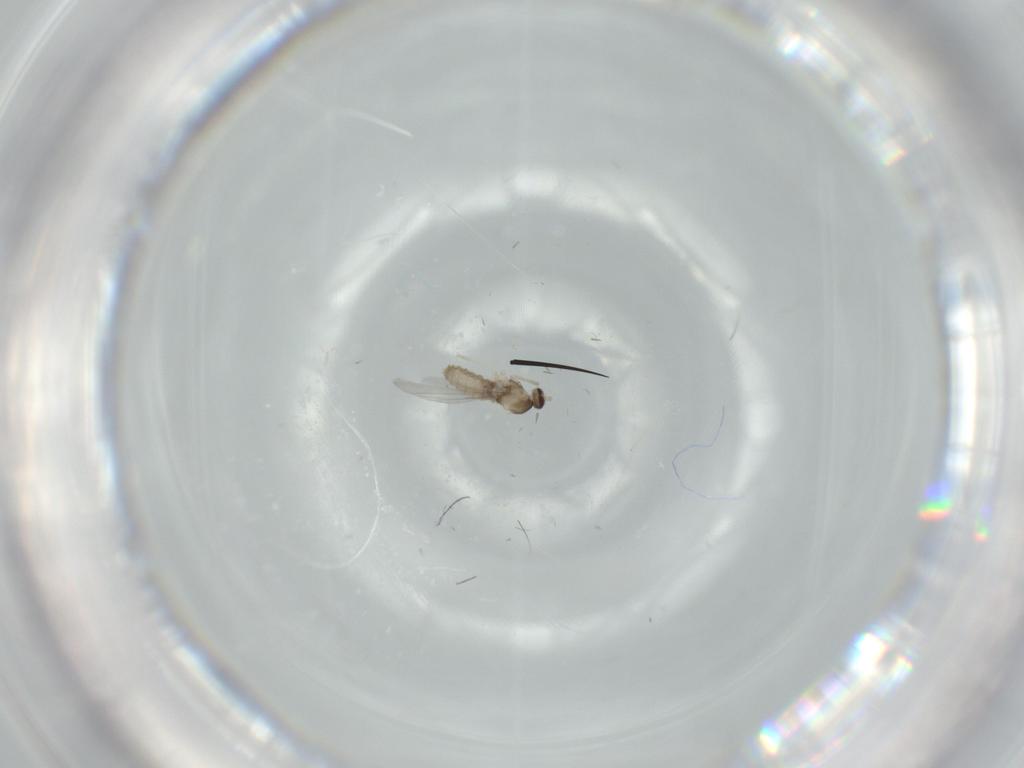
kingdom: Animalia
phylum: Arthropoda
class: Insecta
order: Diptera
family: Cecidomyiidae
